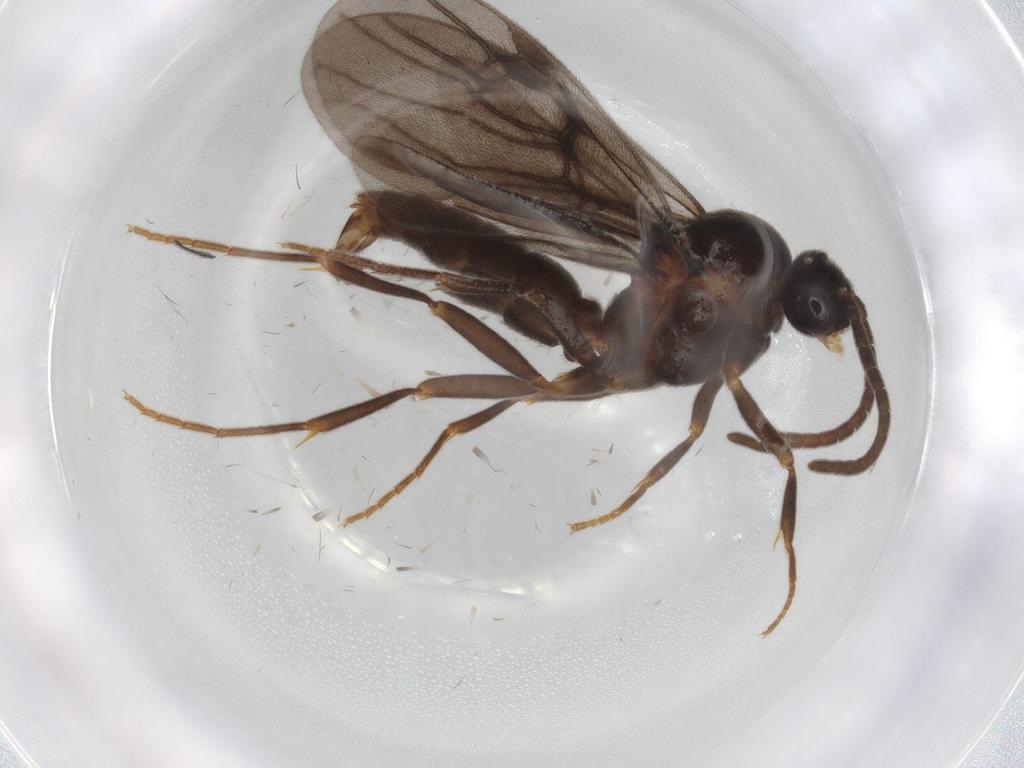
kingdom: Animalia
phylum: Arthropoda
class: Insecta
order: Hymenoptera
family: Formicidae
